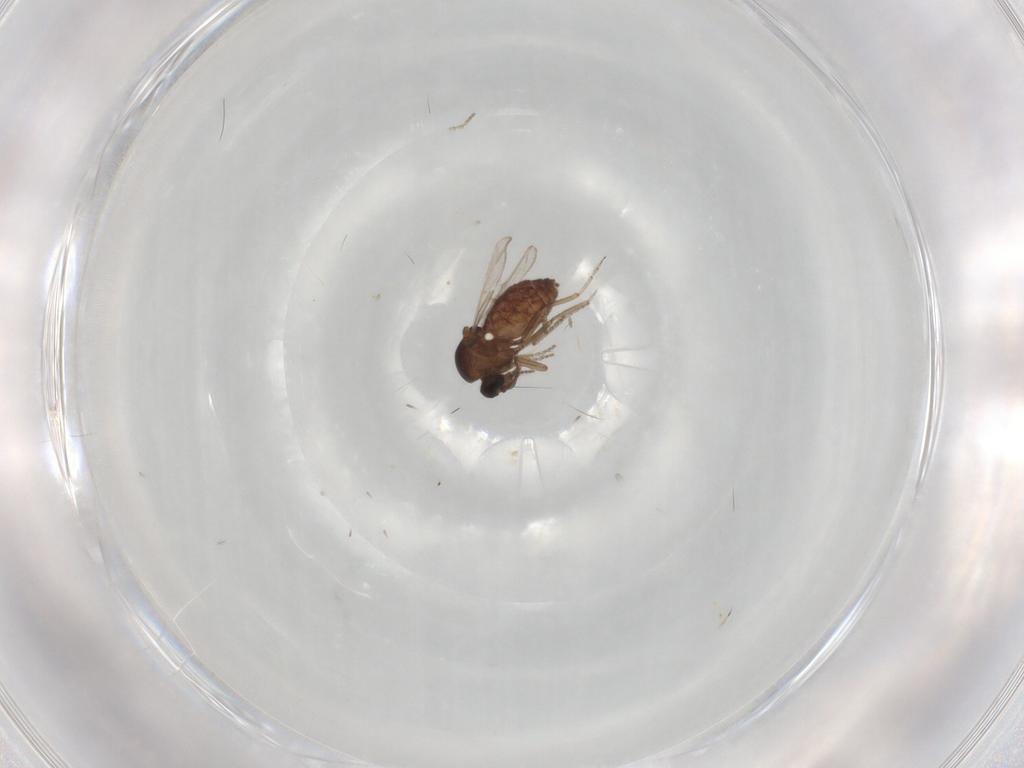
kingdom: Animalia
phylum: Arthropoda
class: Insecta
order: Diptera
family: Ceratopogonidae
